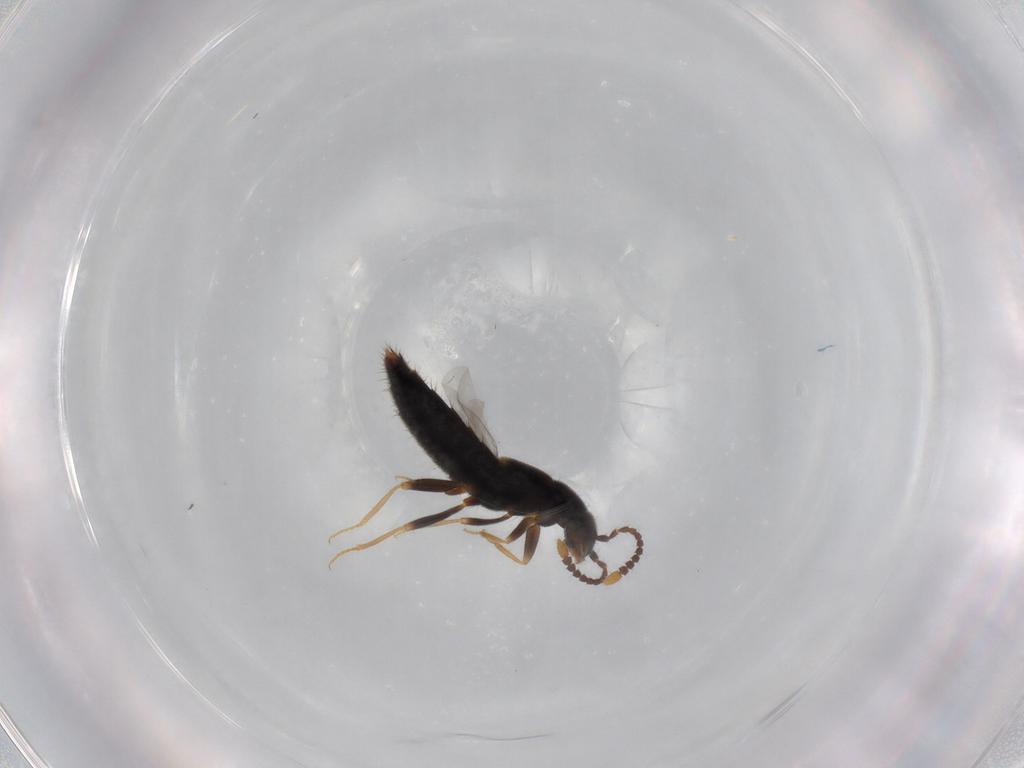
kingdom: Animalia
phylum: Arthropoda
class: Insecta
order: Coleoptera
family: Staphylinidae
